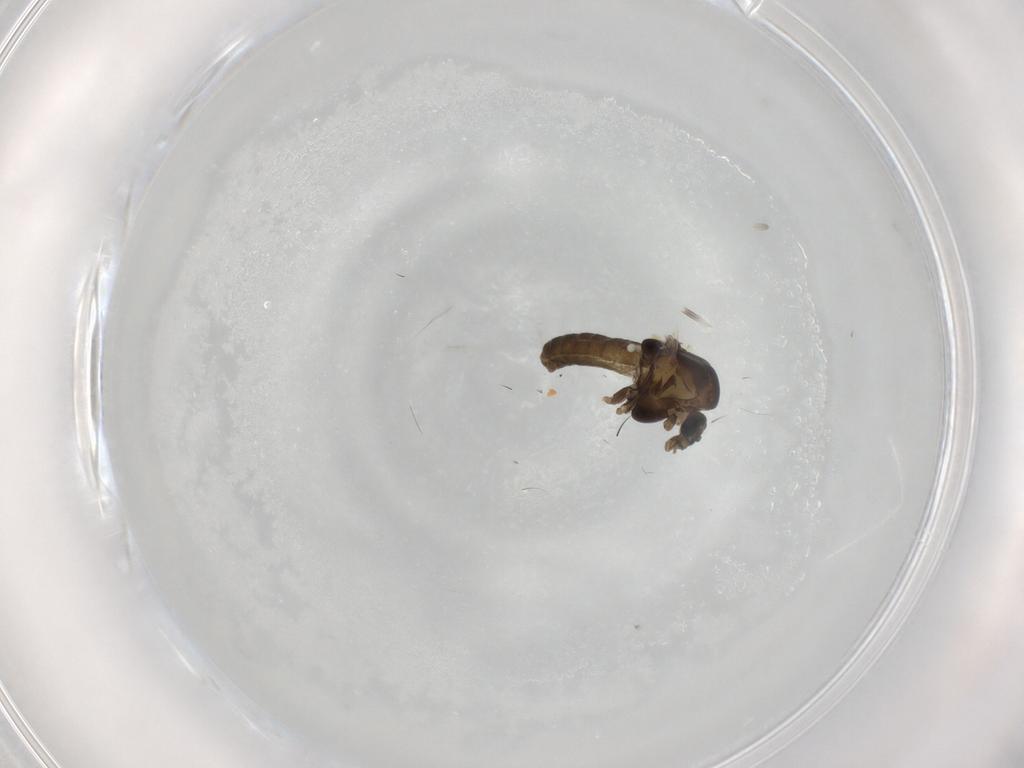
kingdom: Animalia
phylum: Arthropoda
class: Insecta
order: Diptera
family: Chironomidae
